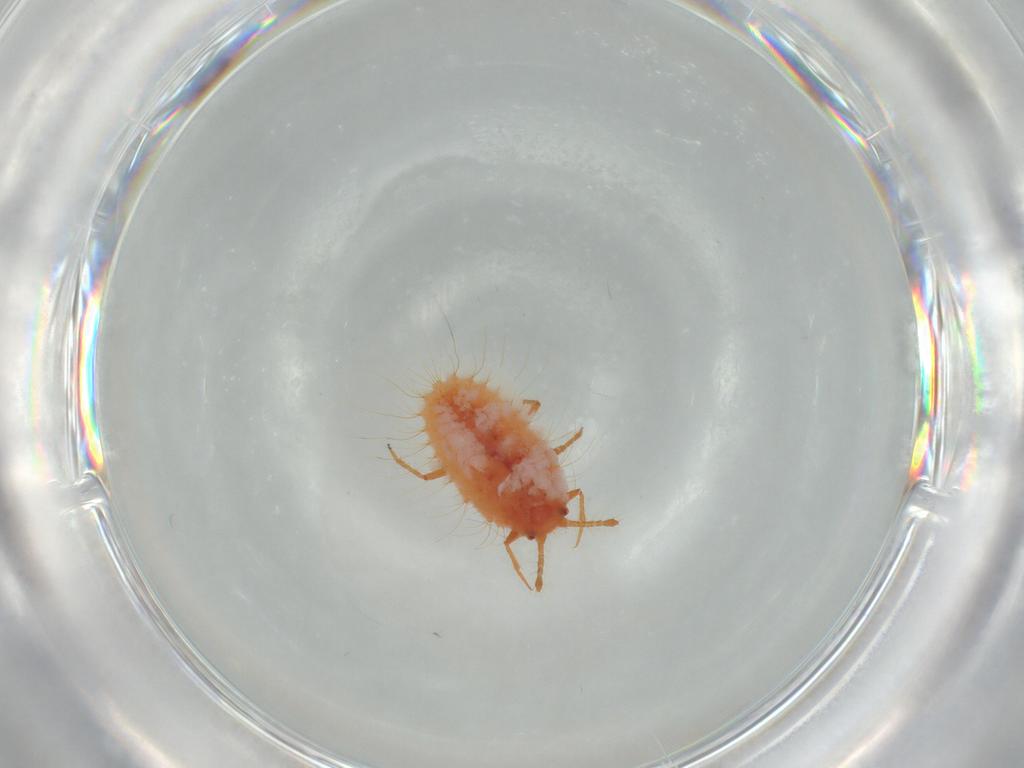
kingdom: Animalia
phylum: Arthropoda
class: Insecta
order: Hemiptera
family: Coccoidea_incertae_sedis
